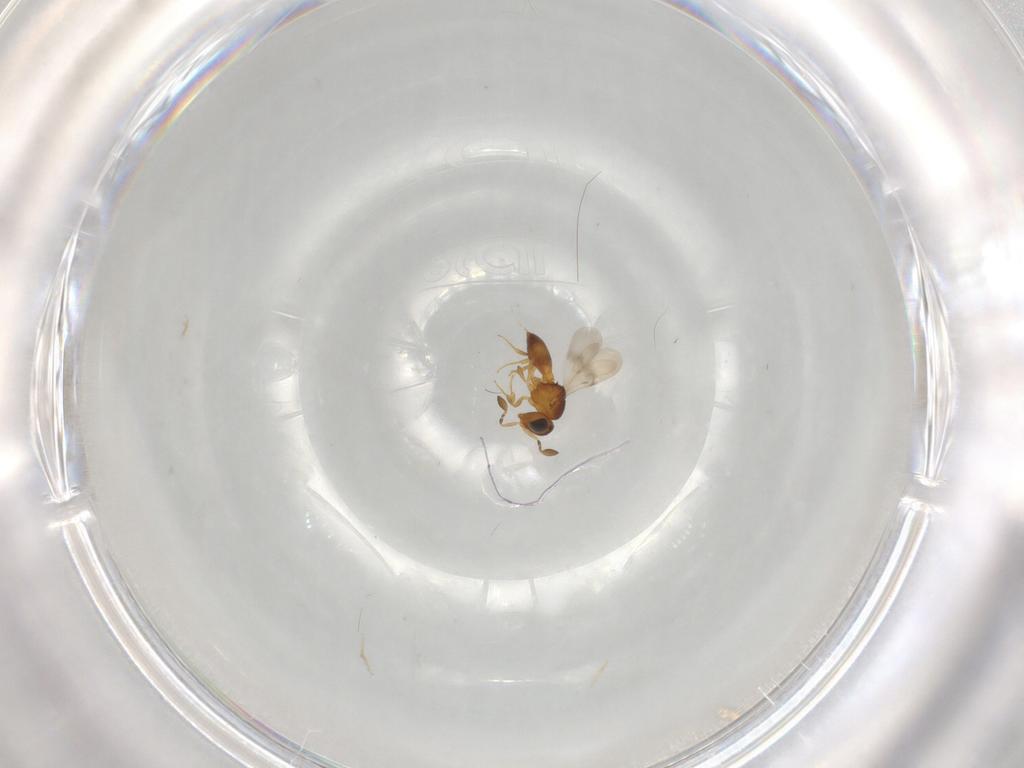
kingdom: Animalia
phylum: Arthropoda
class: Insecta
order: Hymenoptera
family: Scelionidae
